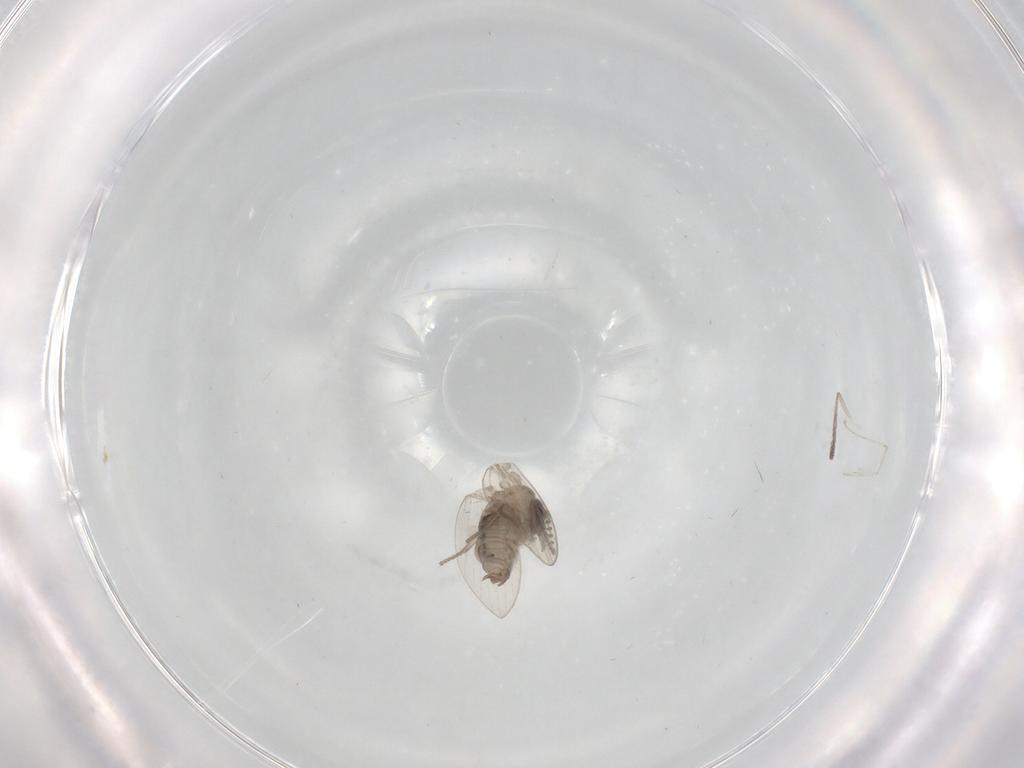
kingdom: Animalia
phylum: Arthropoda
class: Insecta
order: Diptera
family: Psychodidae
